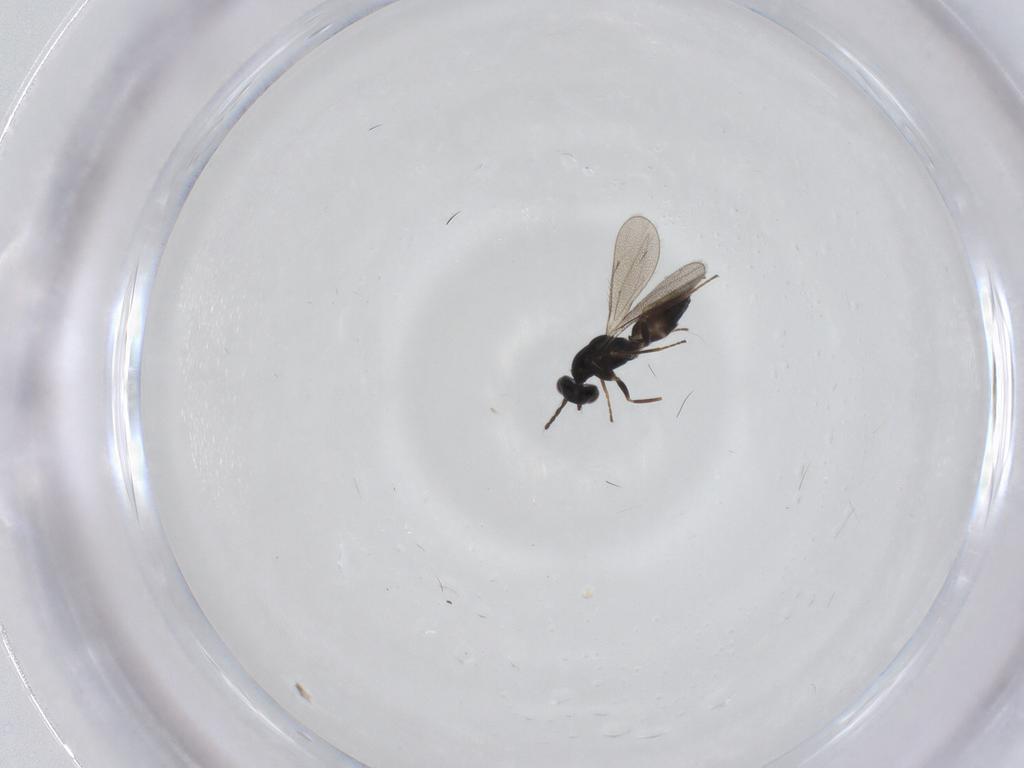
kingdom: Animalia
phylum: Arthropoda
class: Insecta
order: Hymenoptera
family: Eulophidae
